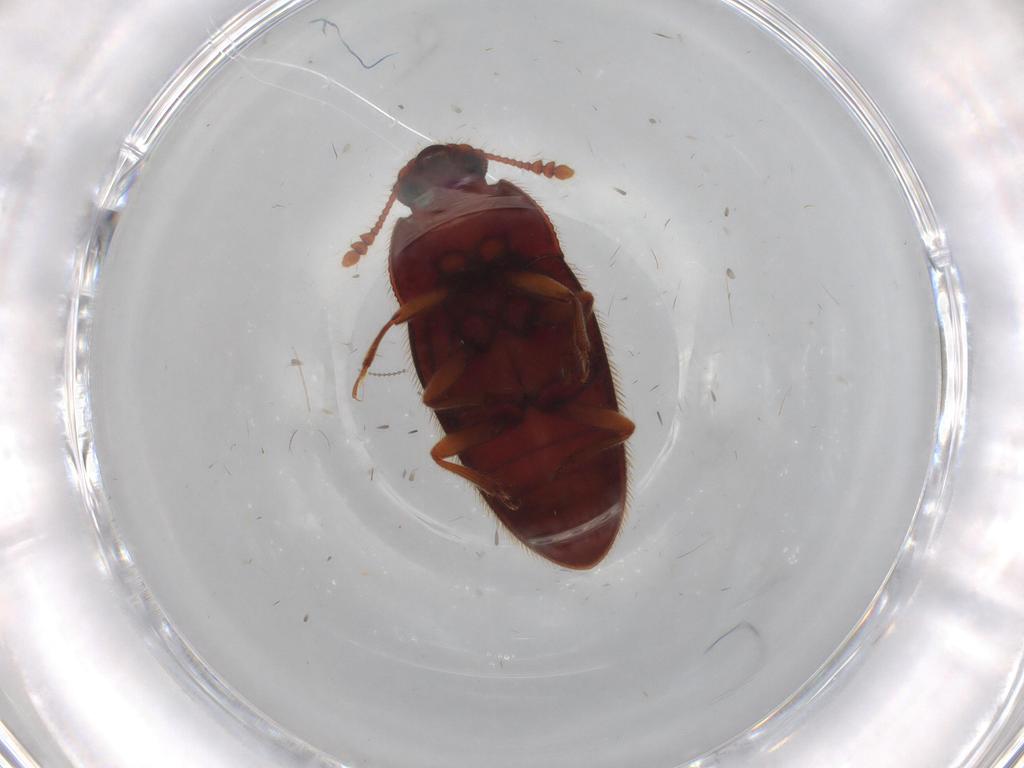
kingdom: Animalia
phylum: Arthropoda
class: Insecta
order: Coleoptera
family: Biphyllidae
